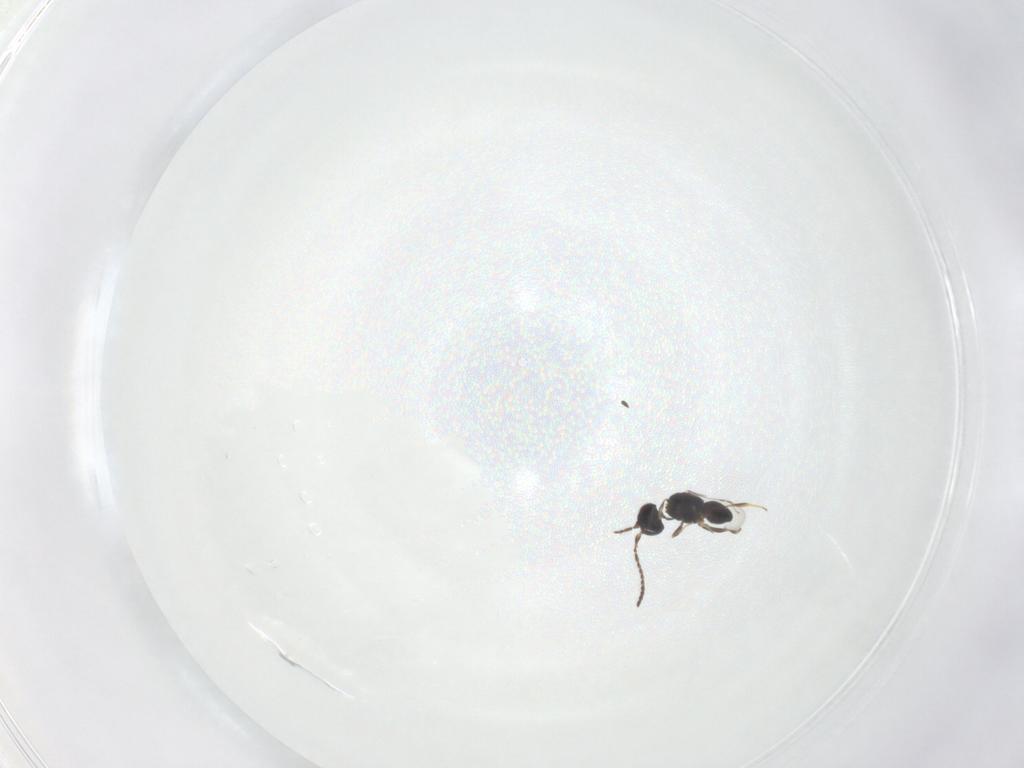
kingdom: Animalia
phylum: Arthropoda
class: Insecta
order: Hymenoptera
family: Ceraphronidae
